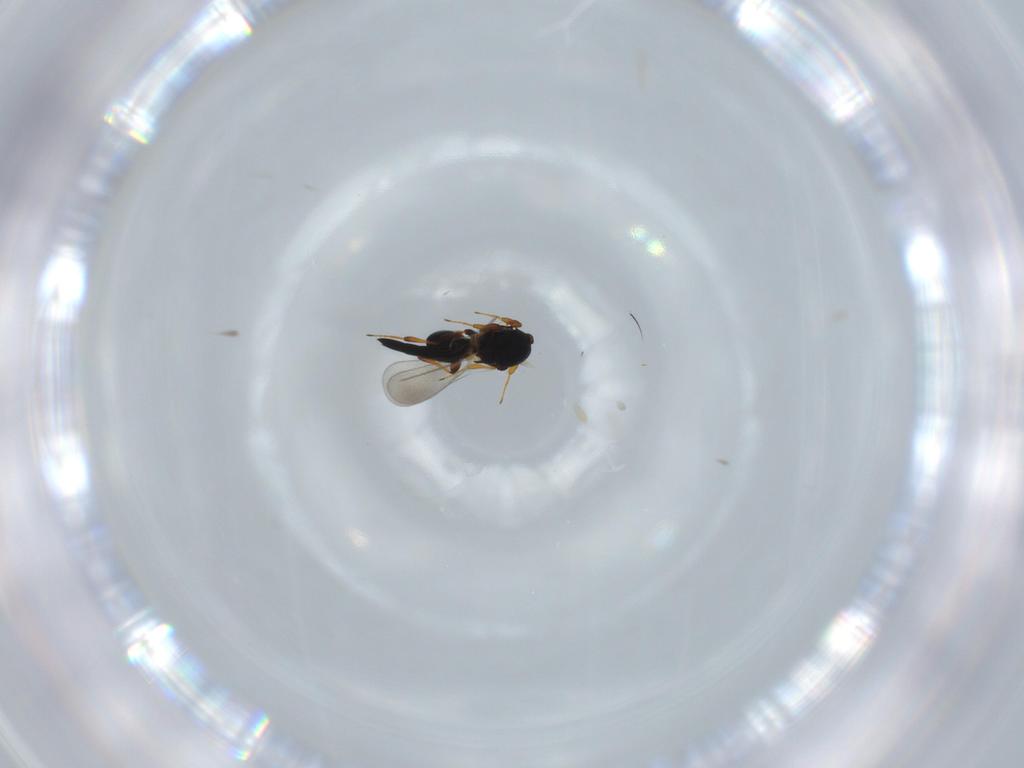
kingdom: Animalia
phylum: Arthropoda
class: Insecta
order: Hymenoptera
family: Platygastridae
